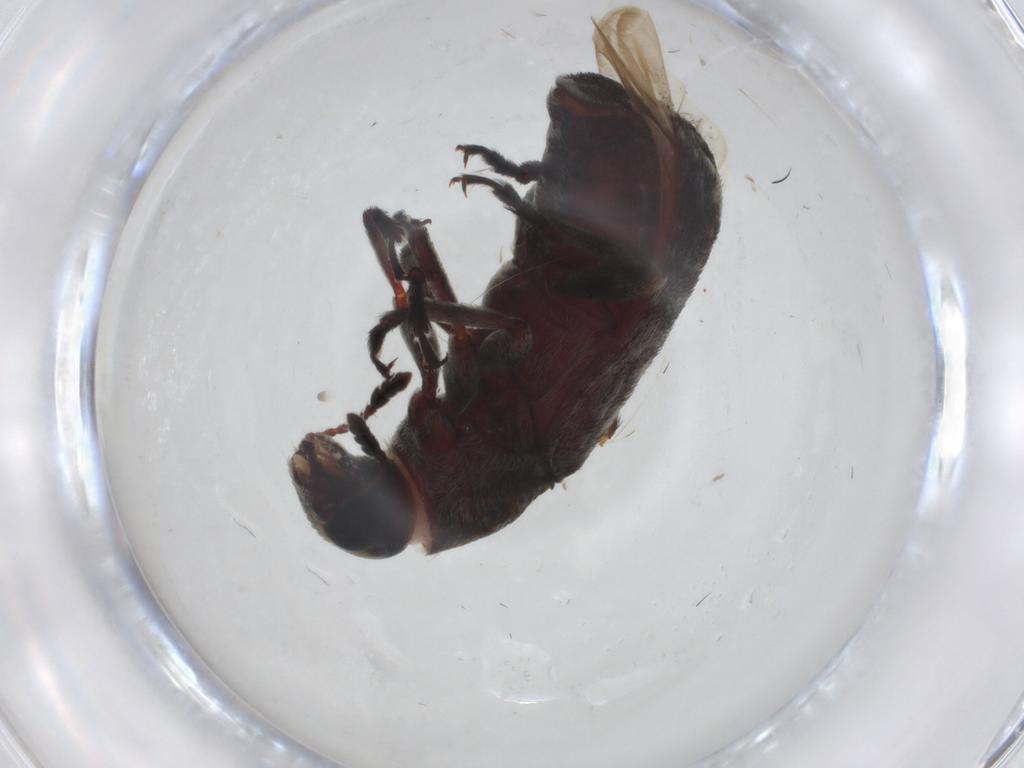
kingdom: Animalia
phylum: Arthropoda
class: Insecta
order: Coleoptera
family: Anthribidae
